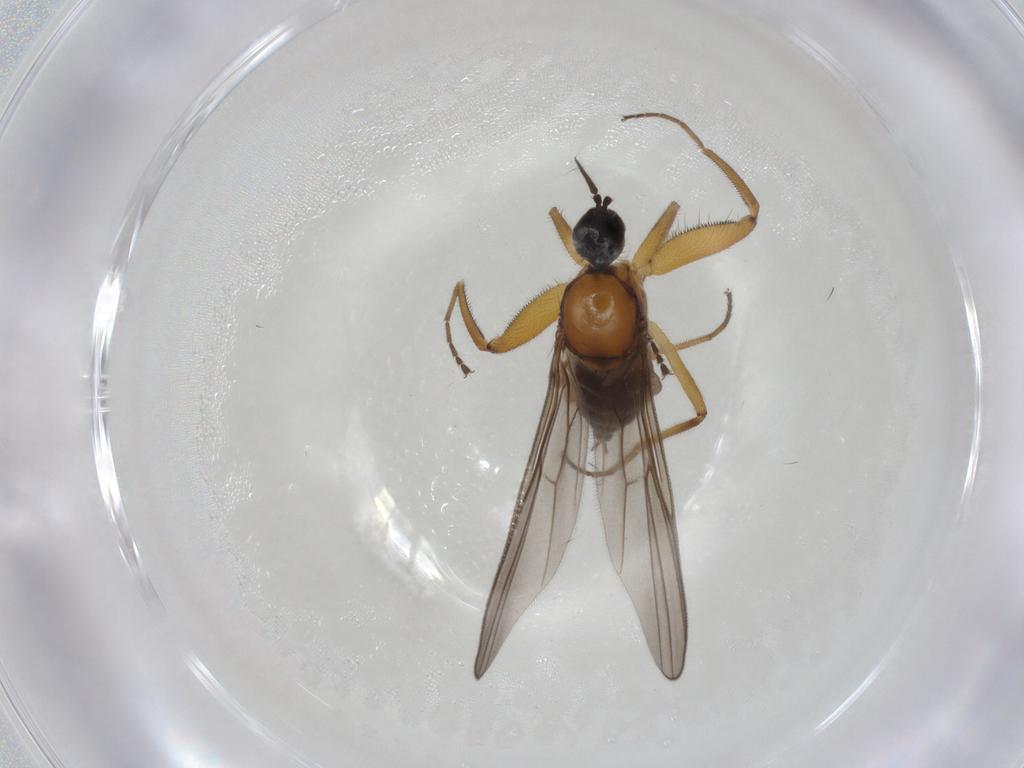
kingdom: Animalia
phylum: Arthropoda
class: Insecta
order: Diptera
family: Hybotidae
